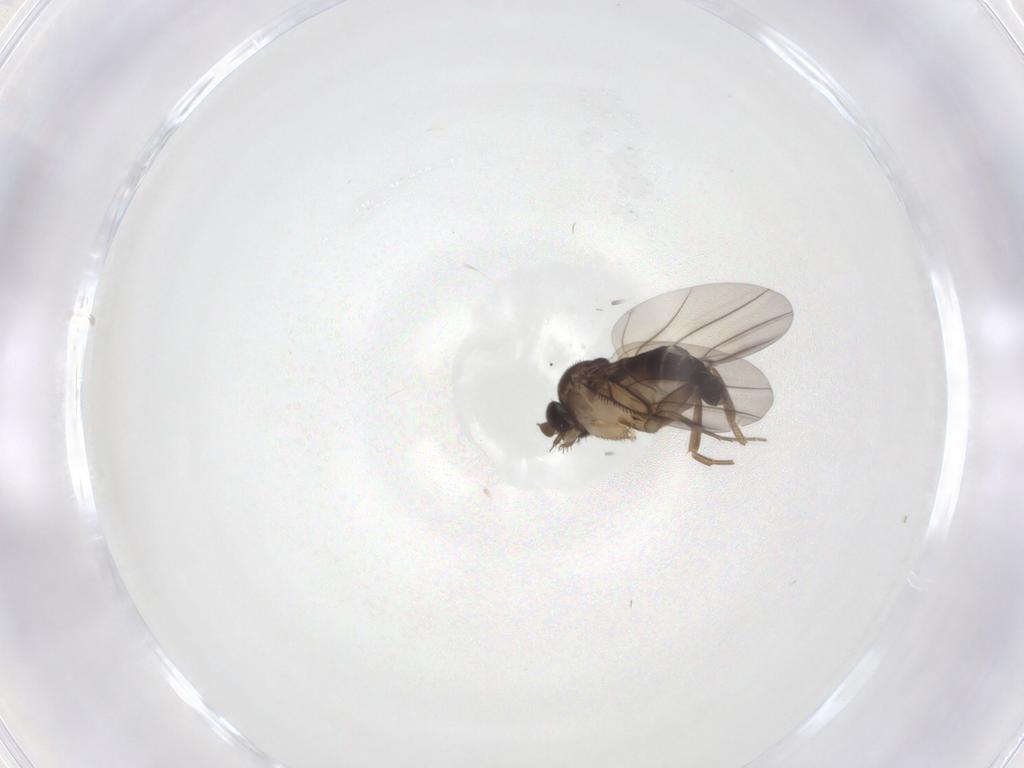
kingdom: Animalia
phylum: Arthropoda
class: Insecta
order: Diptera
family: Phoridae
